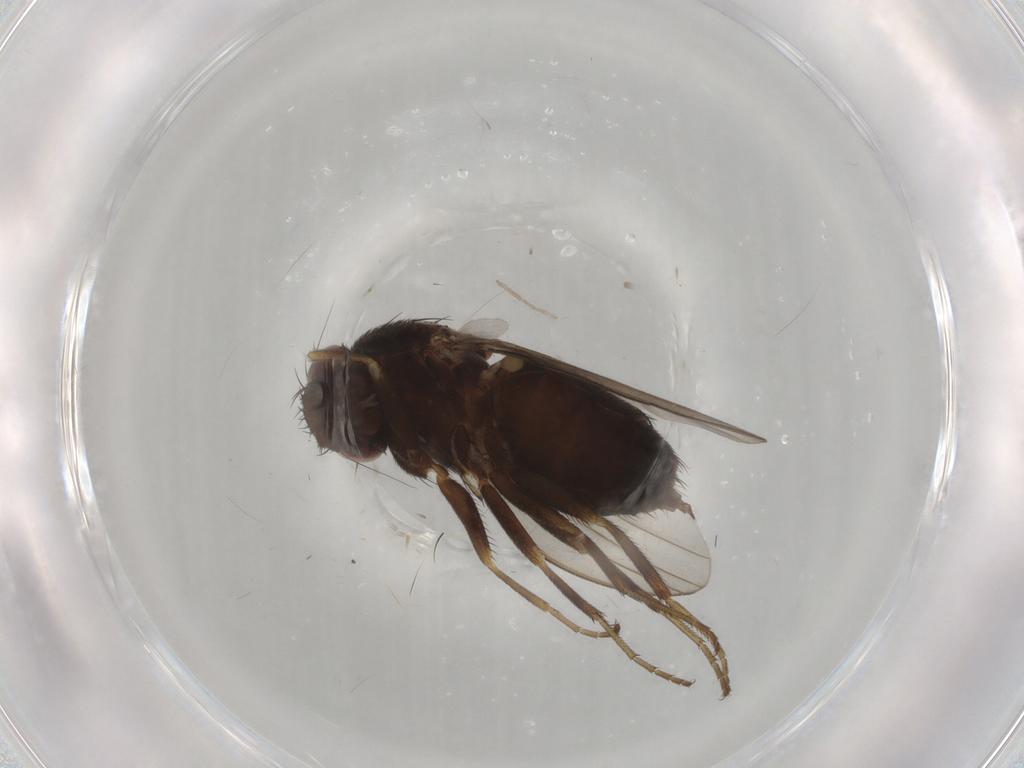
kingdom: Animalia
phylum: Arthropoda
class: Insecta
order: Diptera
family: Milichiidae
